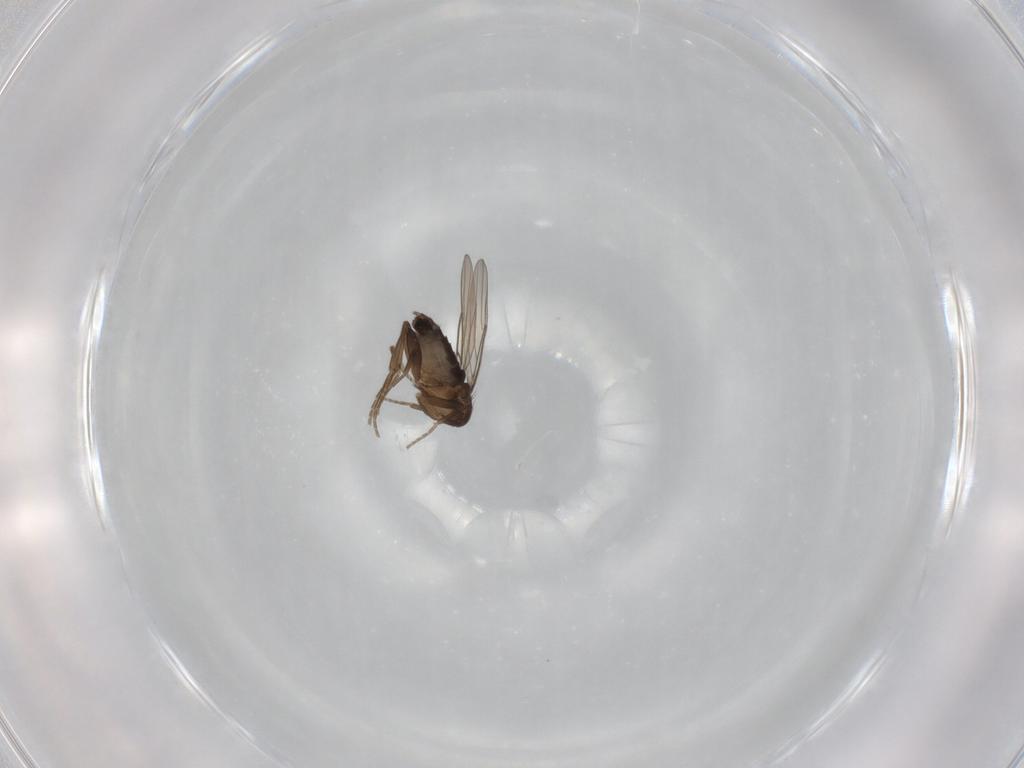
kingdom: Animalia
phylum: Arthropoda
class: Insecta
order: Diptera
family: Phoridae
